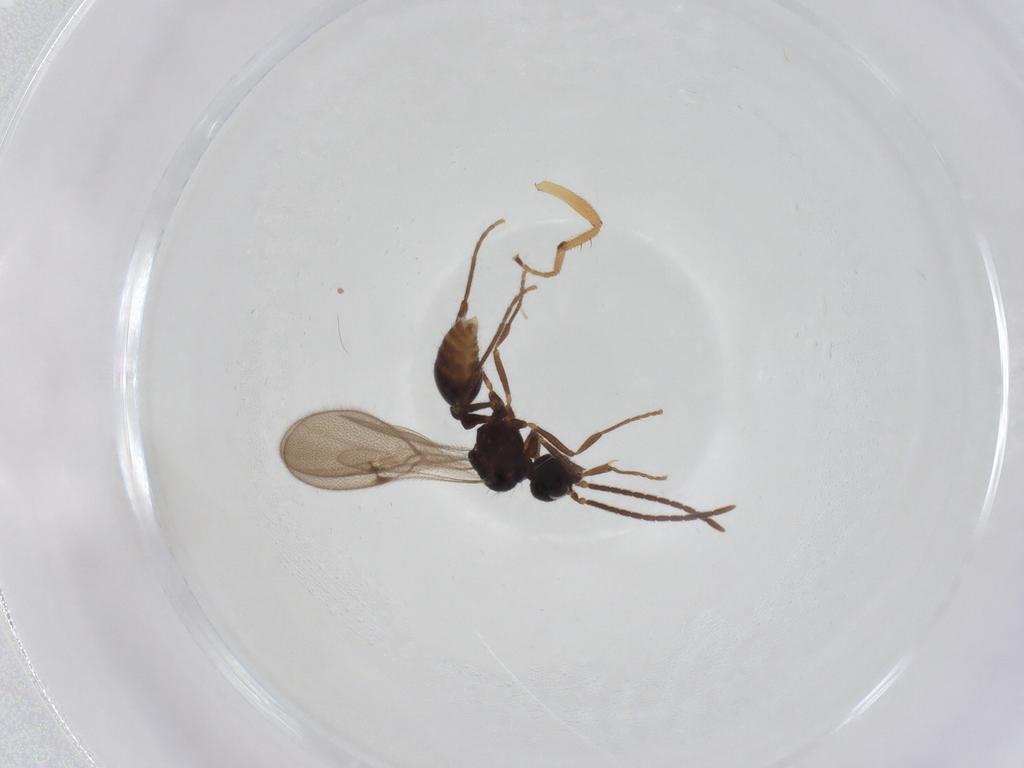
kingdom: Animalia
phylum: Arthropoda
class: Insecta
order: Hymenoptera
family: Formicidae
